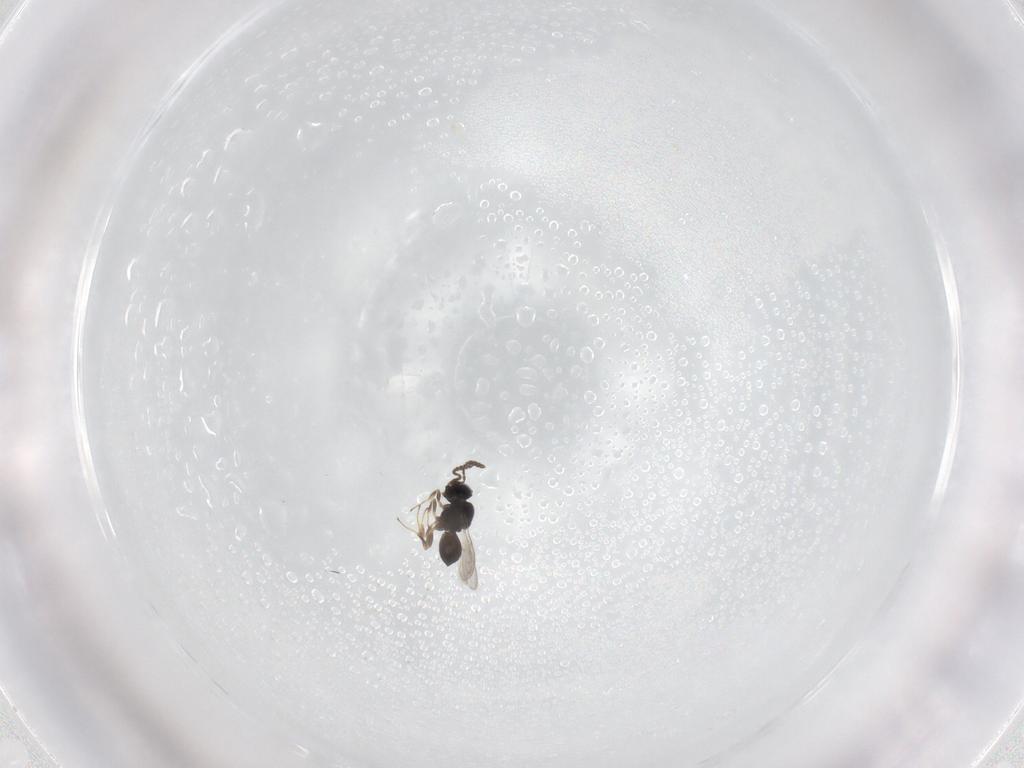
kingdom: Animalia
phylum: Arthropoda
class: Insecta
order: Hymenoptera
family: Scelionidae
